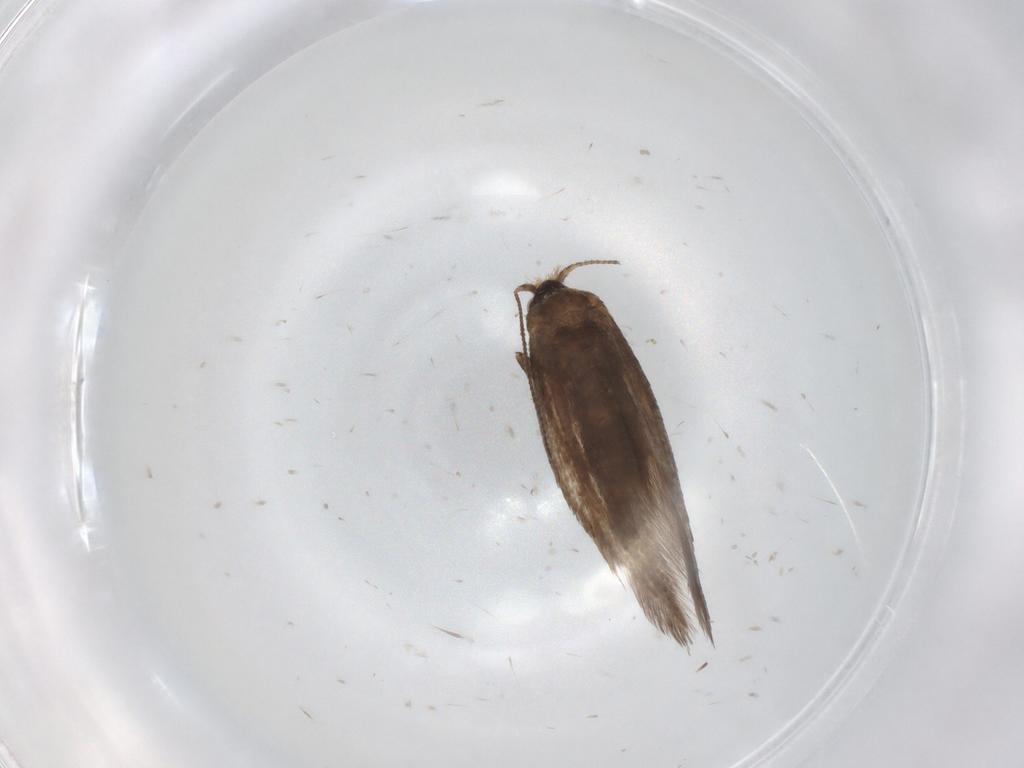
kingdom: Animalia
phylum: Arthropoda
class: Insecta
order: Lepidoptera
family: Nepticulidae
